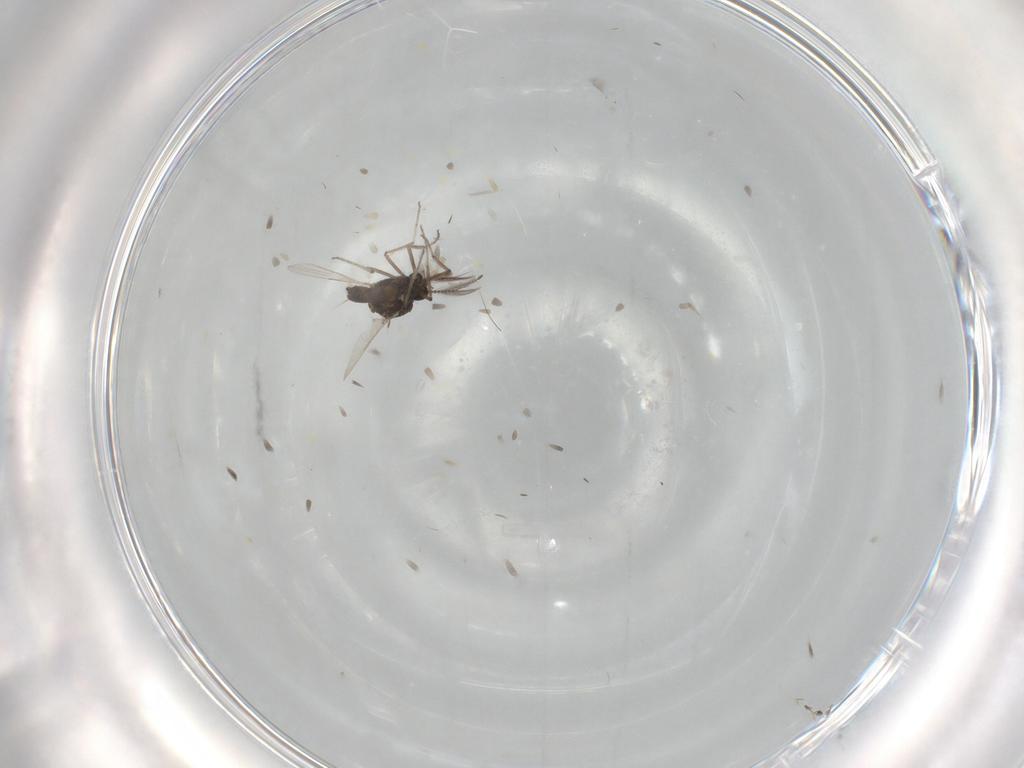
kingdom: Animalia
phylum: Arthropoda
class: Insecta
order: Diptera
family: Ceratopogonidae
